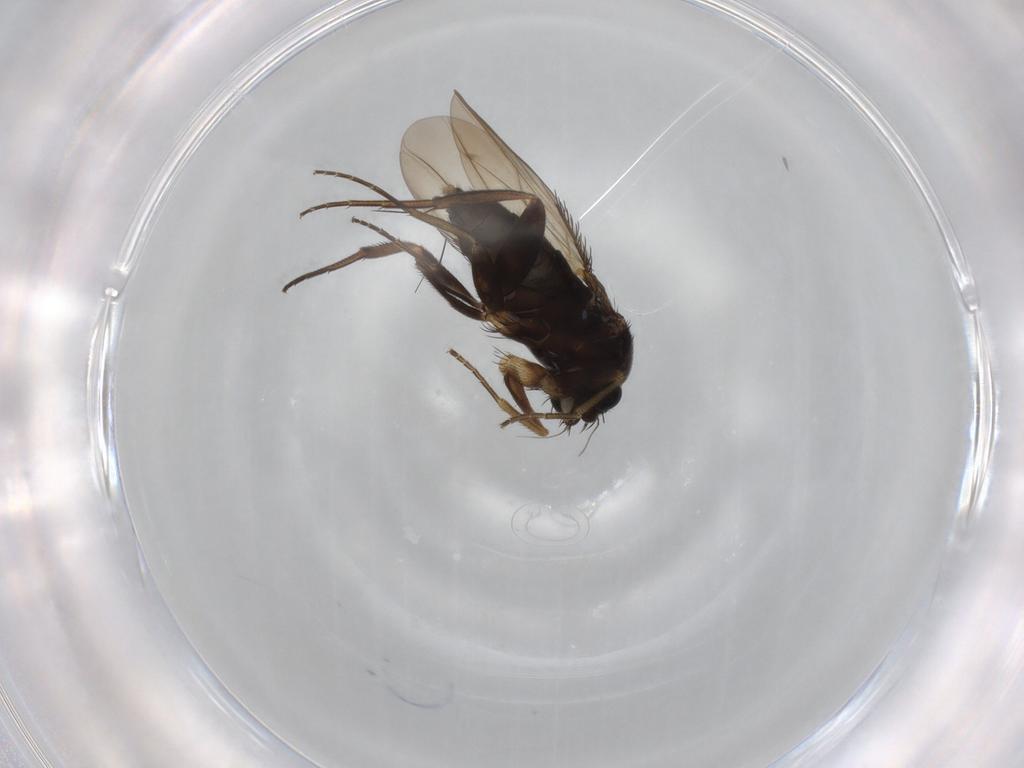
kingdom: Animalia
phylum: Arthropoda
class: Insecta
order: Diptera
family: Phoridae
